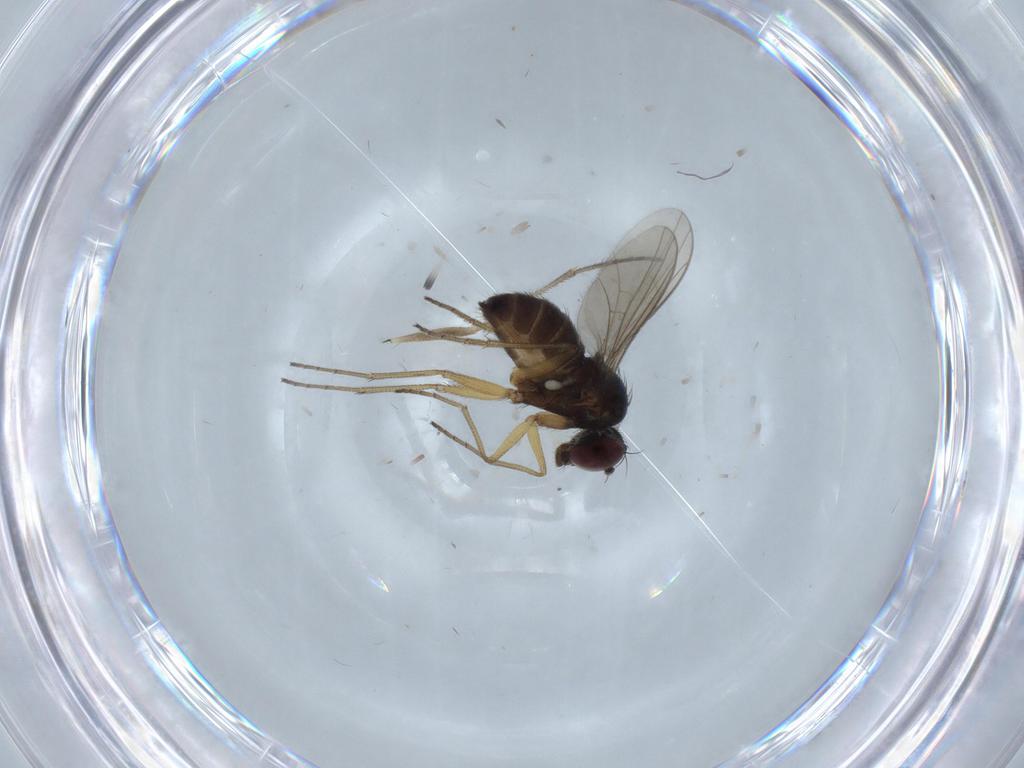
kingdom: Animalia
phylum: Arthropoda
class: Insecta
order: Diptera
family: Dolichopodidae
